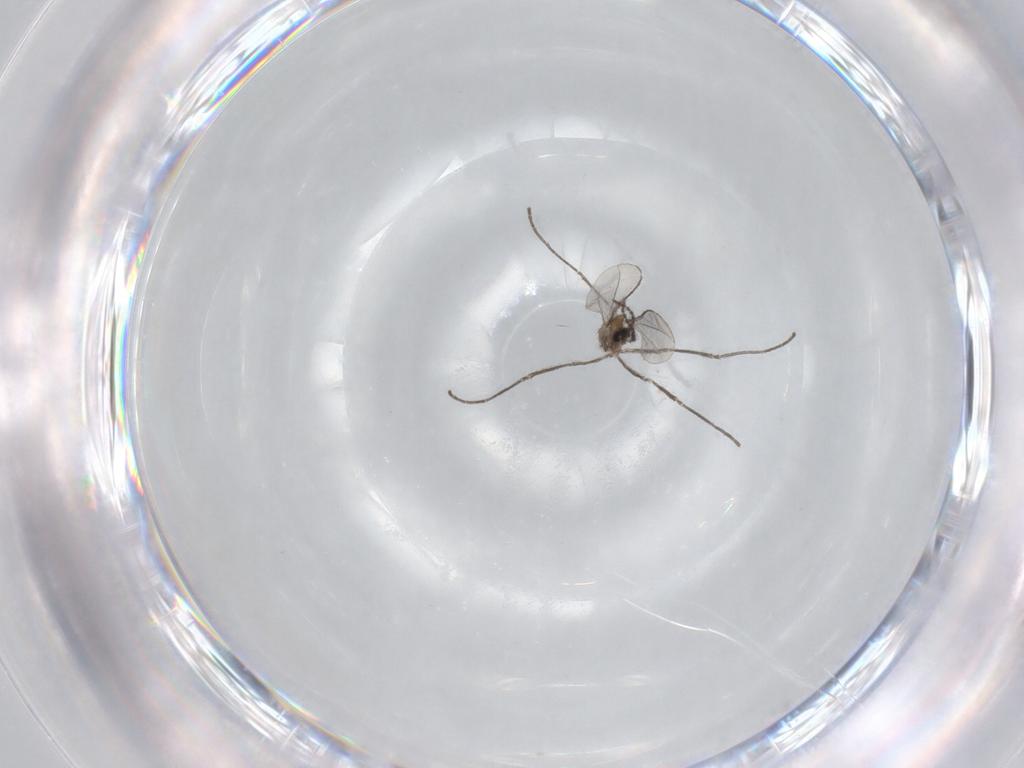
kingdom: Animalia
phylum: Arthropoda
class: Insecta
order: Diptera
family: Cecidomyiidae
